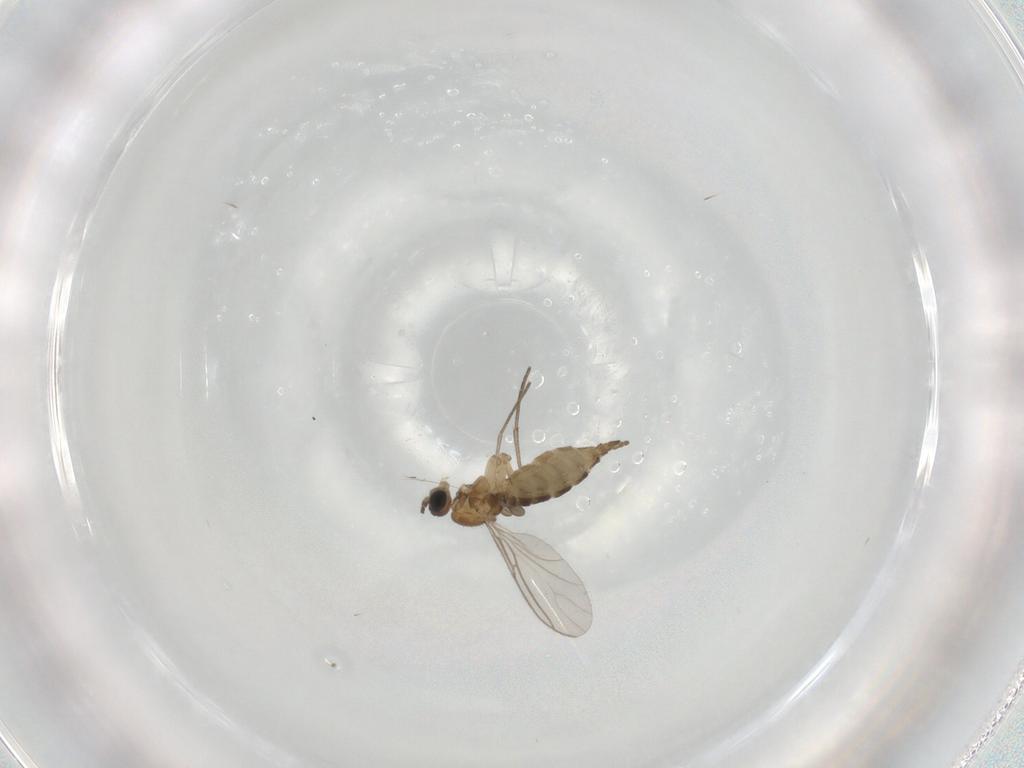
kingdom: Animalia
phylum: Arthropoda
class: Insecta
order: Diptera
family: Sciaridae
